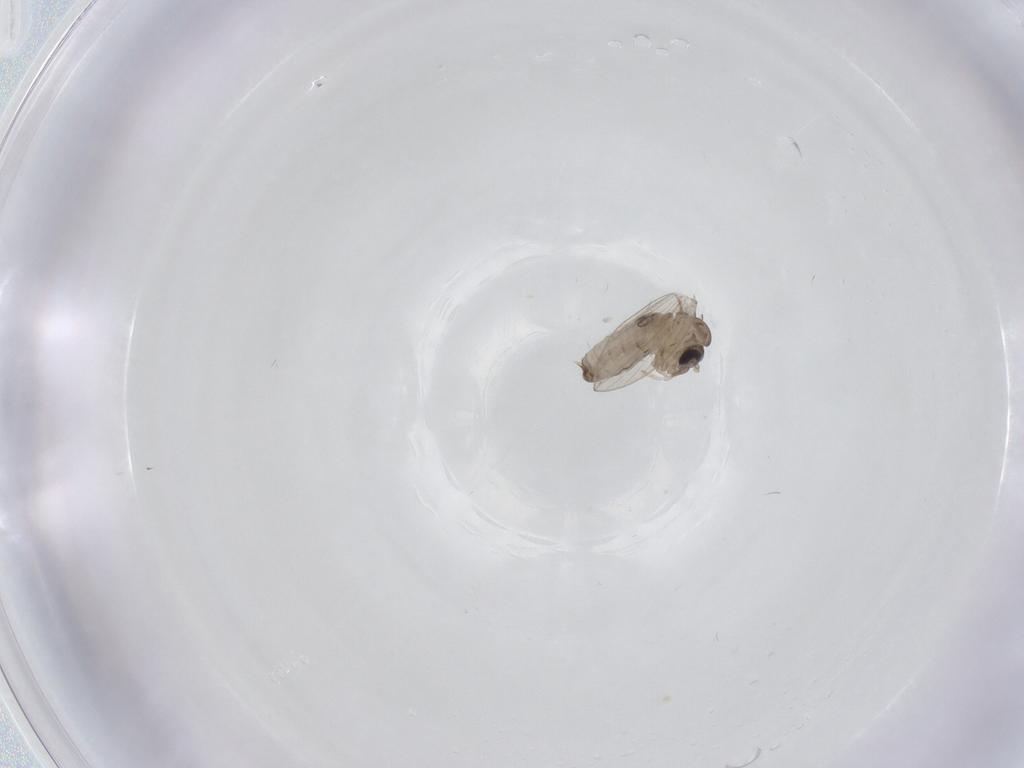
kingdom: Animalia
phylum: Arthropoda
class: Insecta
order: Diptera
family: Psychodidae
